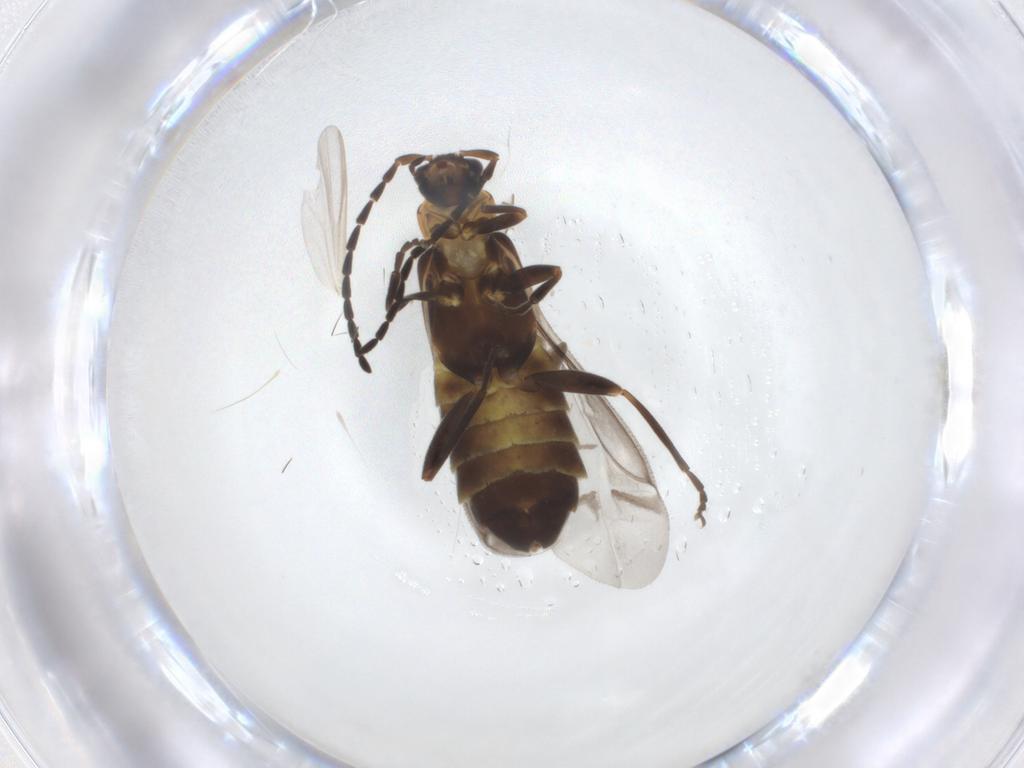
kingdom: Animalia
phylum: Arthropoda
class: Insecta
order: Coleoptera
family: Cantharidae
